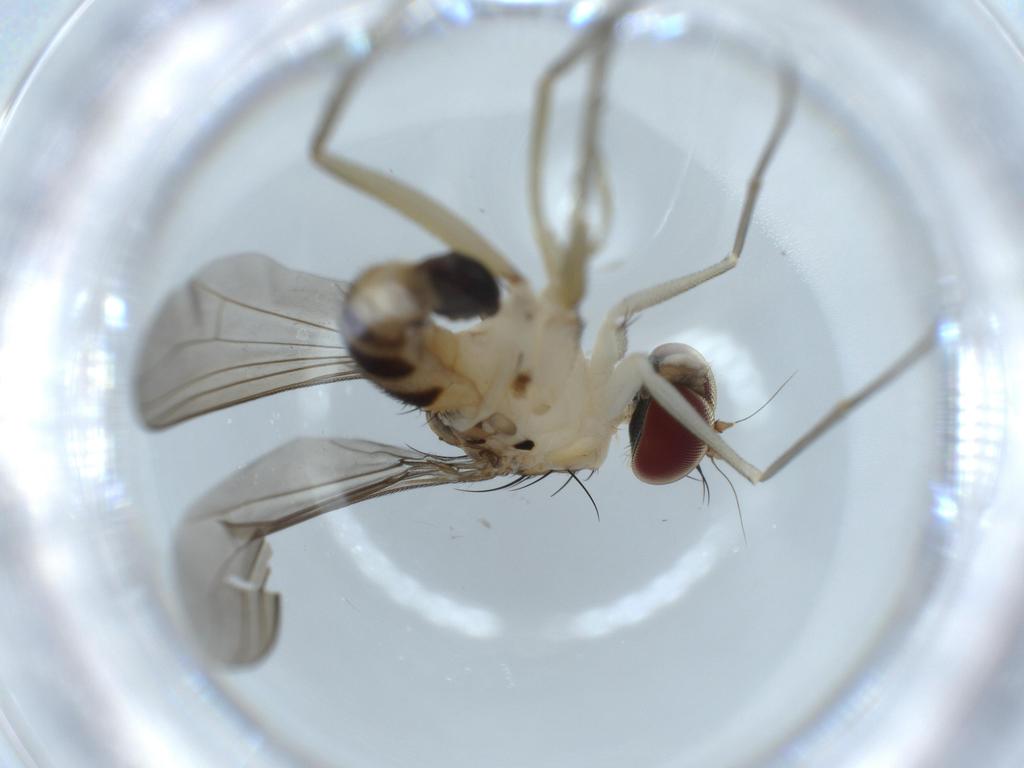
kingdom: Animalia
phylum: Arthropoda
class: Insecta
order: Diptera
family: Dolichopodidae
